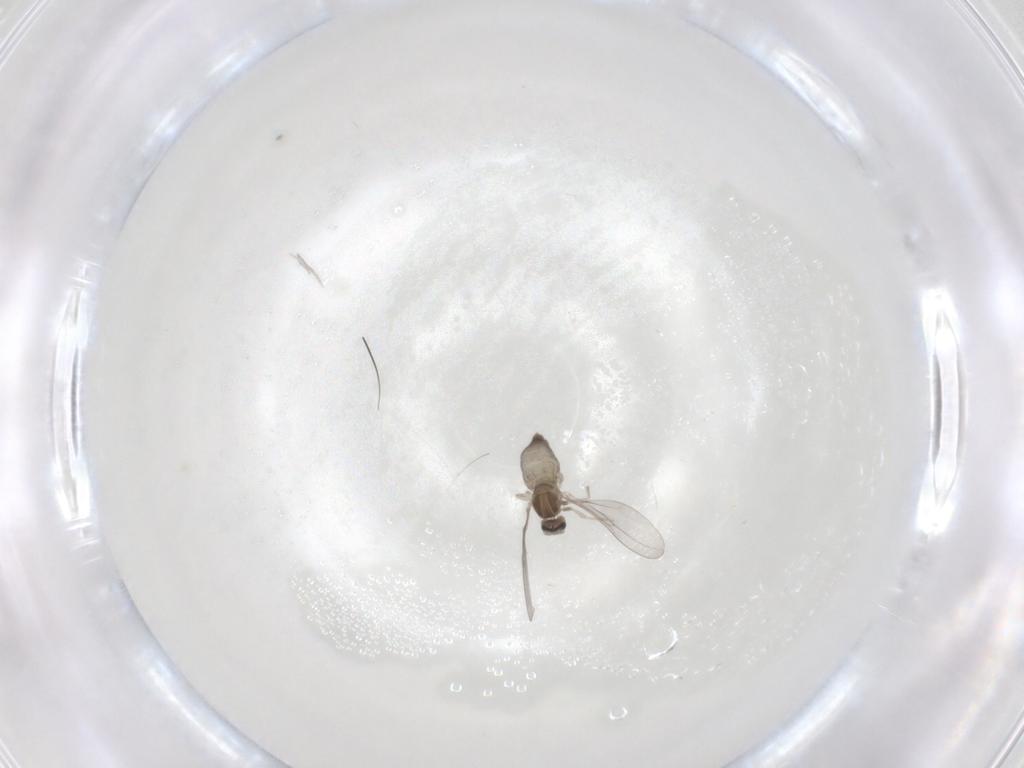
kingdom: Animalia
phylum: Arthropoda
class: Insecta
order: Diptera
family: Cecidomyiidae
